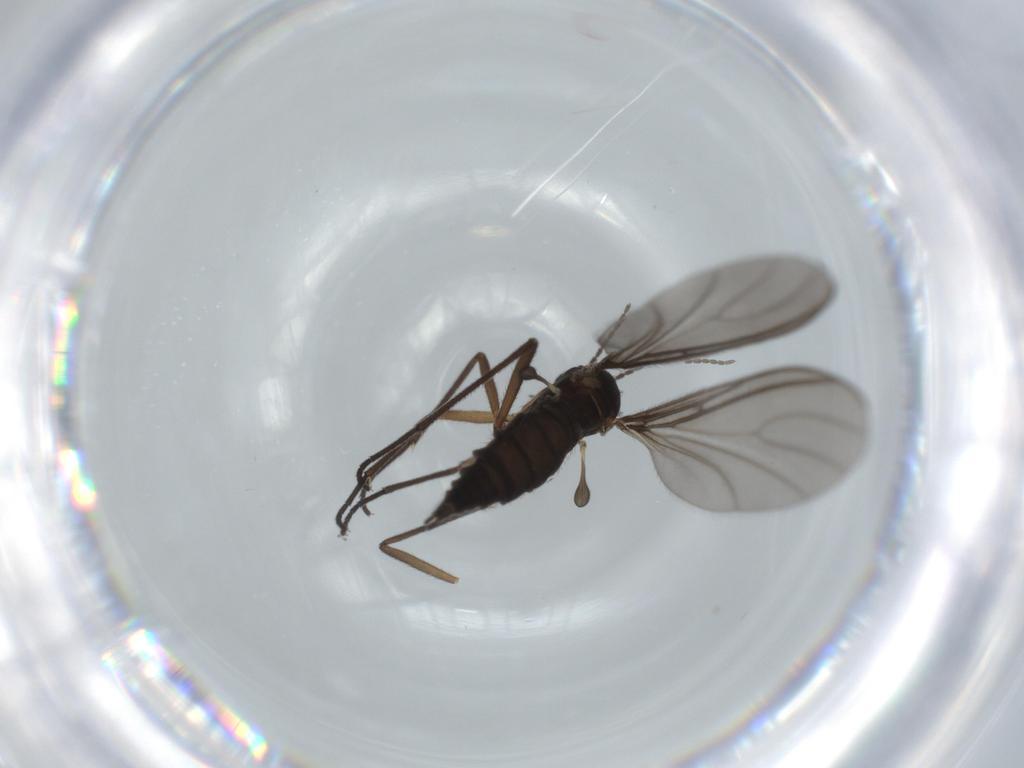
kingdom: Animalia
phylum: Arthropoda
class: Insecta
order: Diptera
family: Sciaridae
